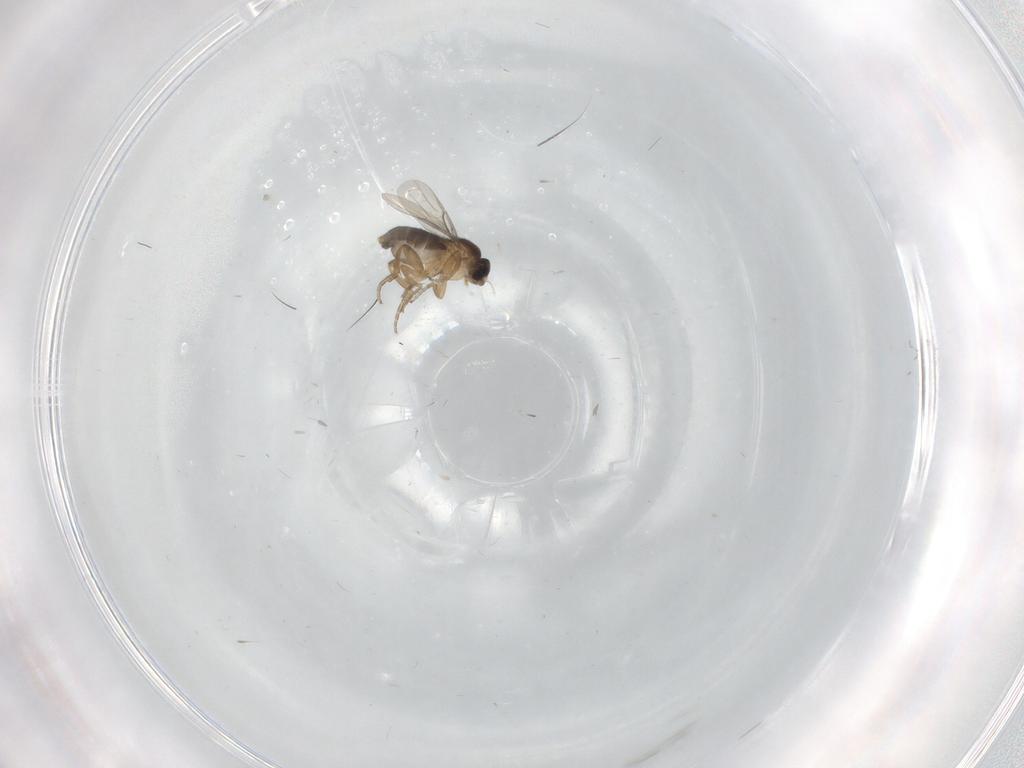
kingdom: Animalia
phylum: Arthropoda
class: Insecta
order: Diptera
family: Phoridae
